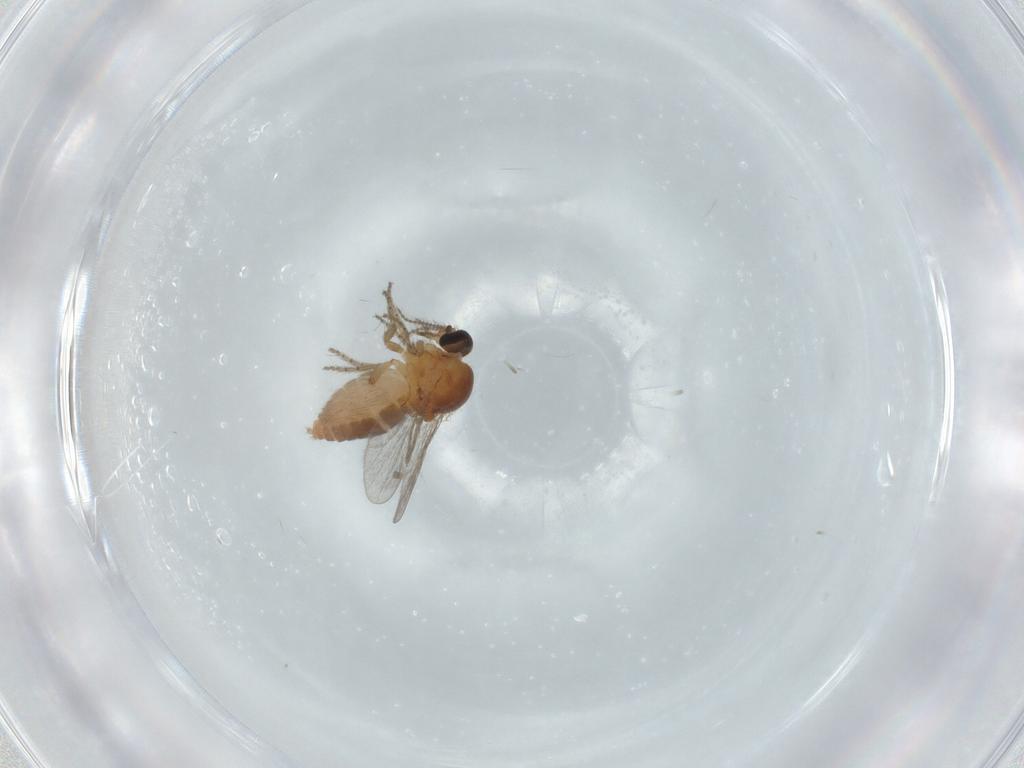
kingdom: Animalia
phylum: Arthropoda
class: Insecta
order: Diptera
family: Ceratopogonidae
